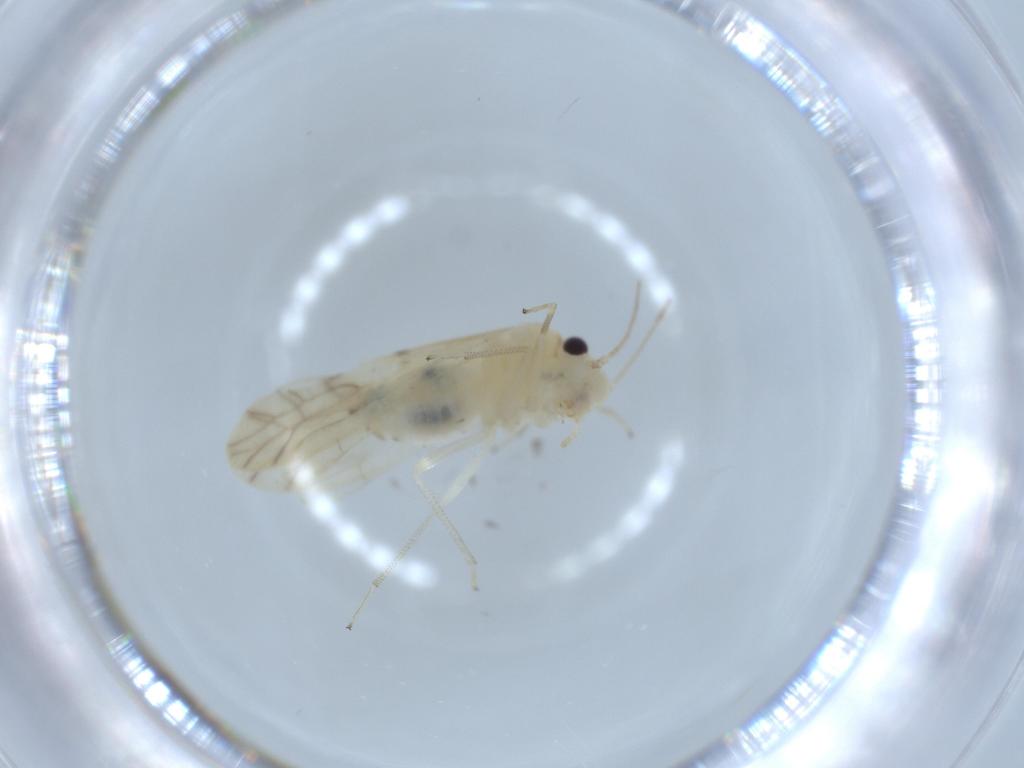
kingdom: Animalia
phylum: Arthropoda
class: Insecta
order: Psocodea
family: Caeciliusidae
